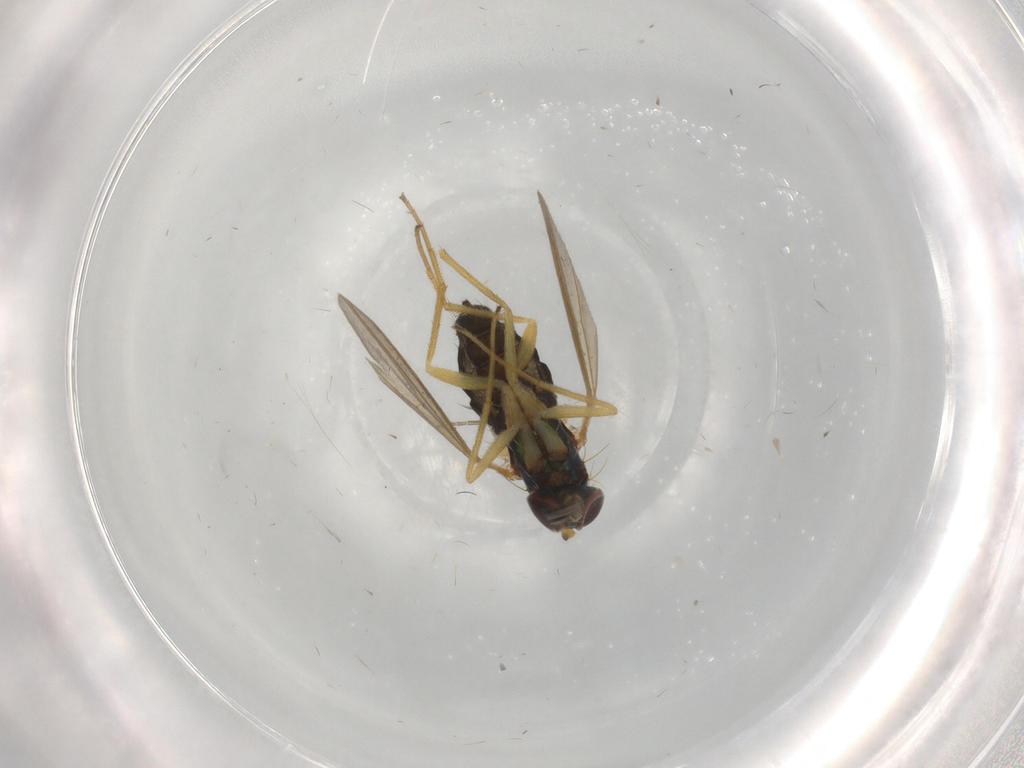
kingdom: Animalia
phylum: Arthropoda
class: Insecta
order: Diptera
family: Dolichopodidae
